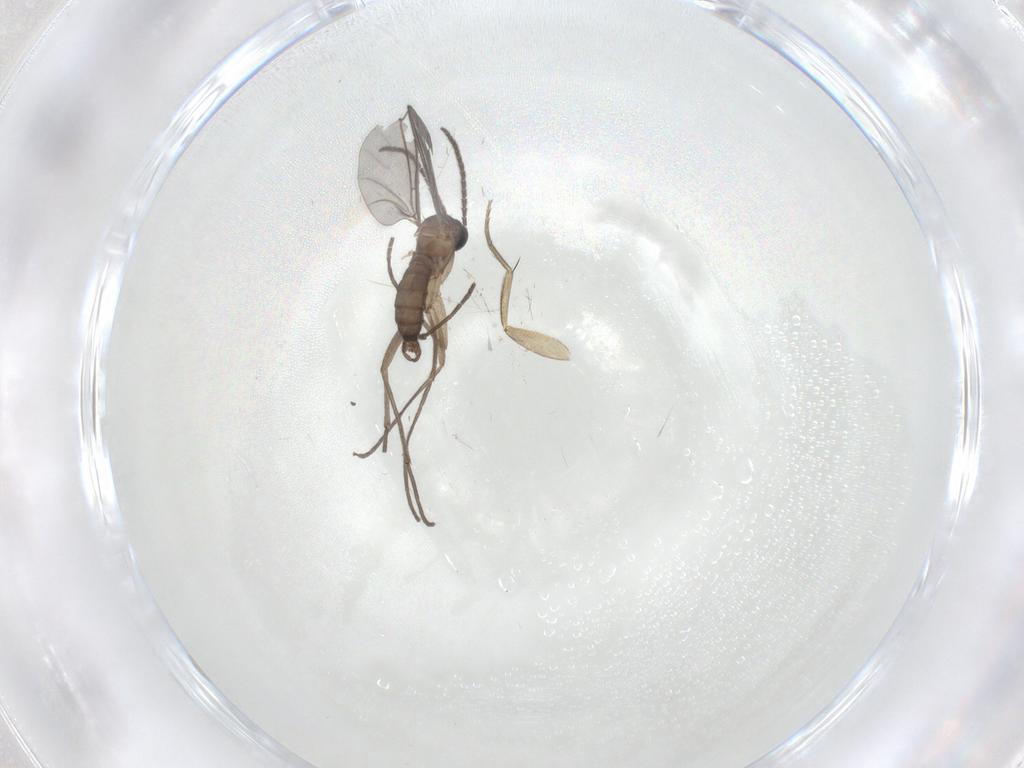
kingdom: Animalia
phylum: Arthropoda
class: Insecta
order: Diptera
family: Sciaridae
